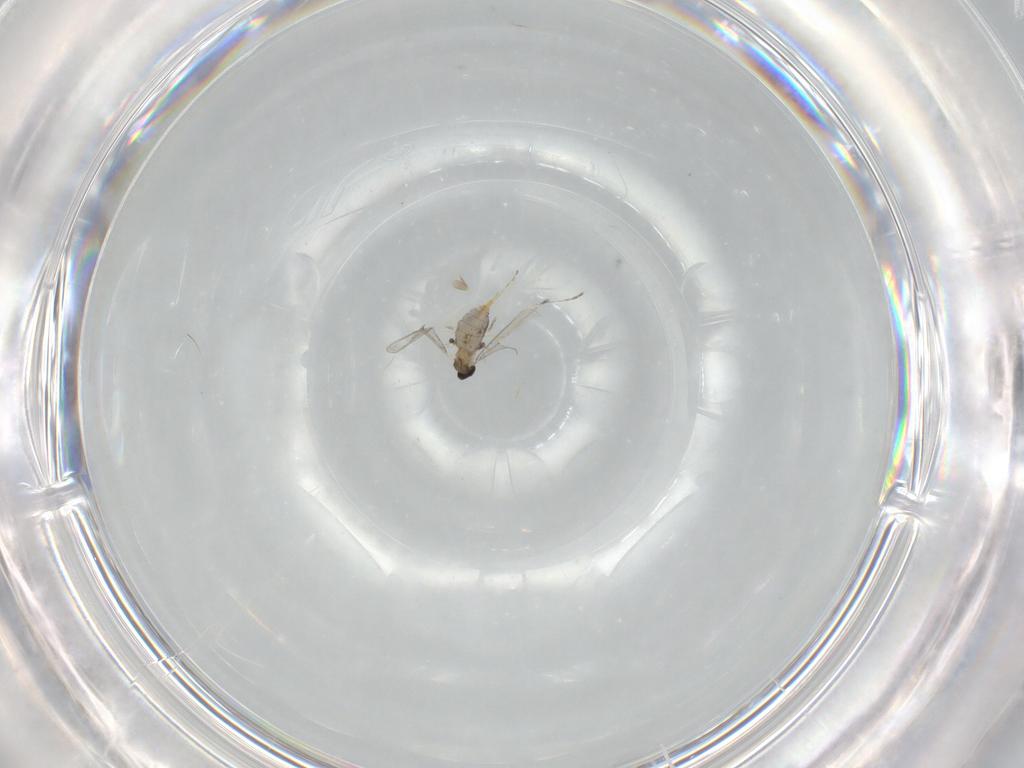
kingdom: Animalia
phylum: Arthropoda
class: Insecta
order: Diptera
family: Cecidomyiidae
